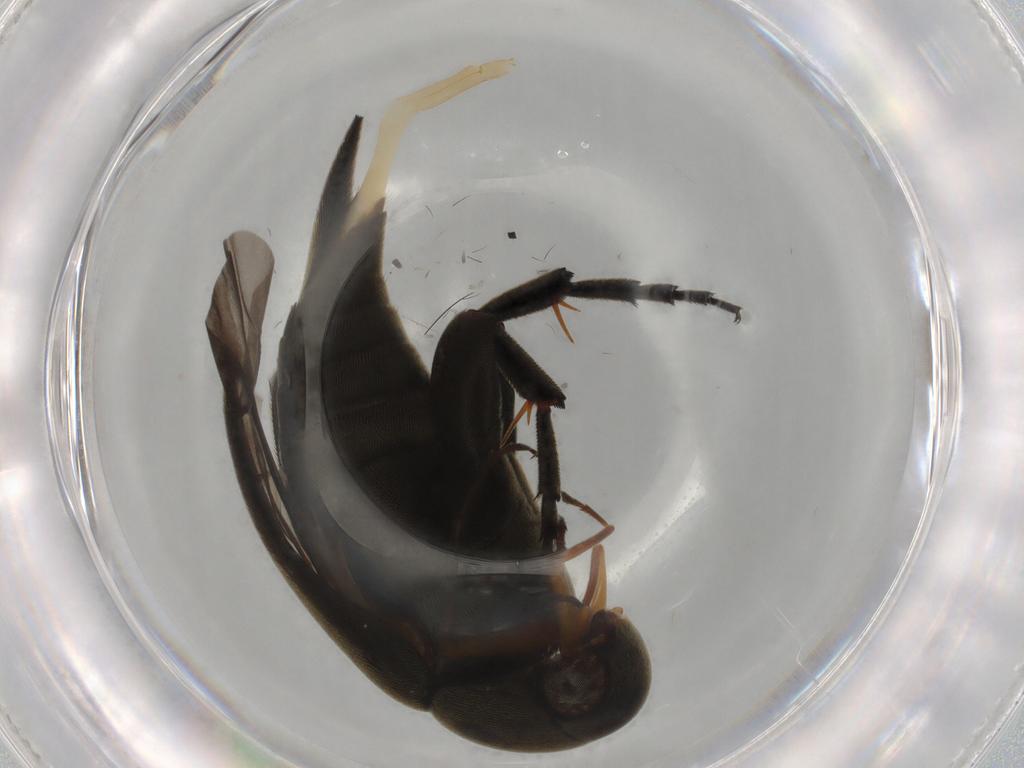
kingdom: Animalia
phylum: Arthropoda
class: Insecta
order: Coleoptera
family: Mordellidae
